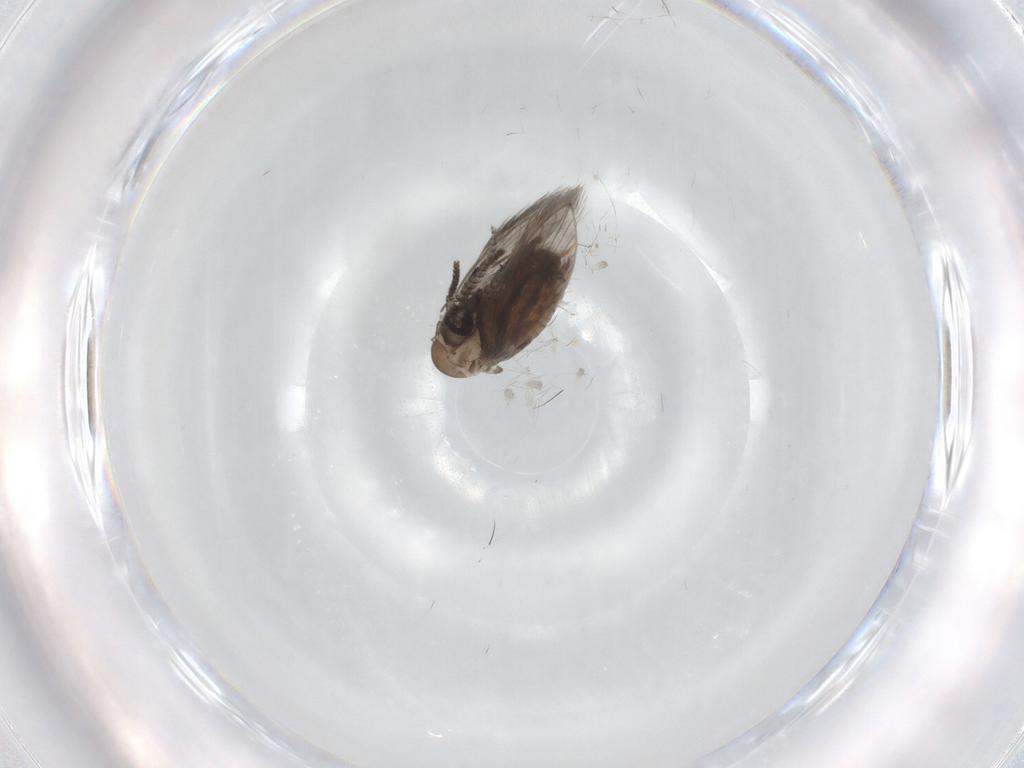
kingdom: Animalia
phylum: Arthropoda
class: Insecta
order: Diptera
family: Psychodidae
